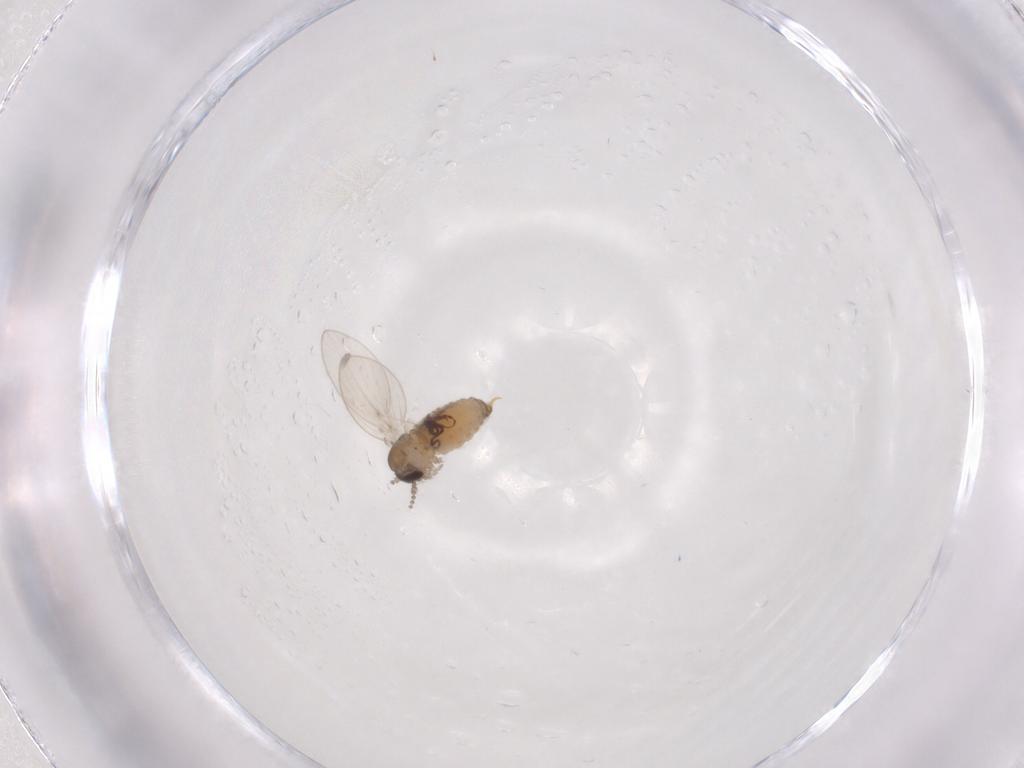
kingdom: Animalia
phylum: Arthropoda
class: Insecta
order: Diptera
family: Psychodidae
